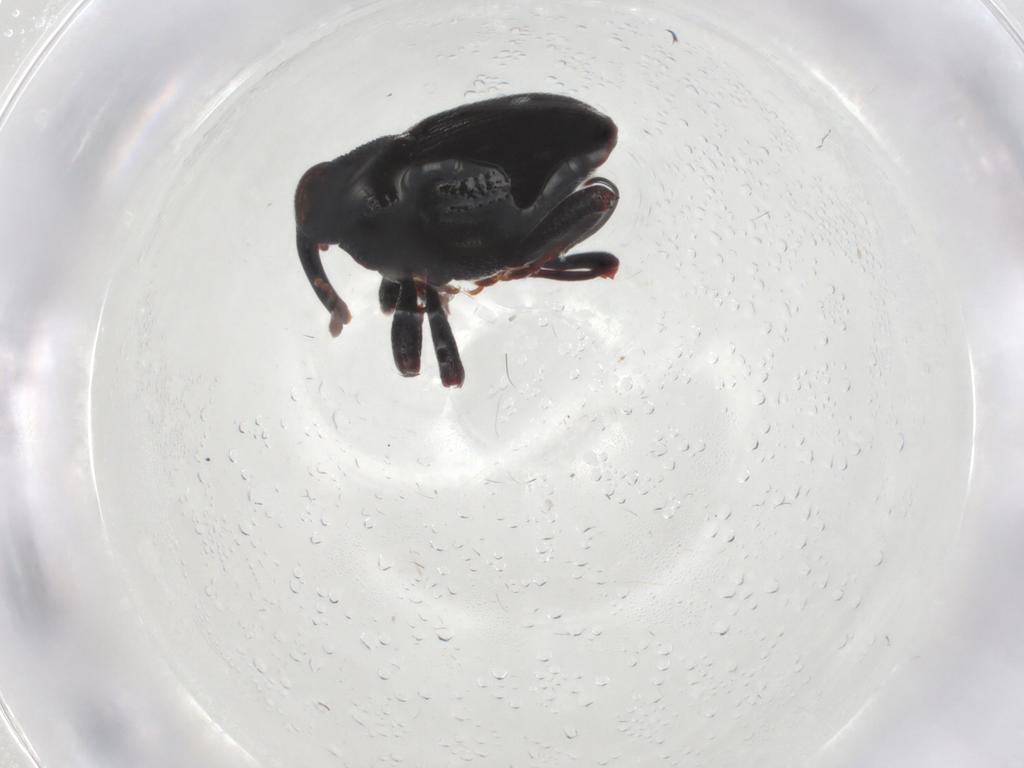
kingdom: Animalia
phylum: Arthropoda
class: Insecta
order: Coleoptera
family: Curculionidae
